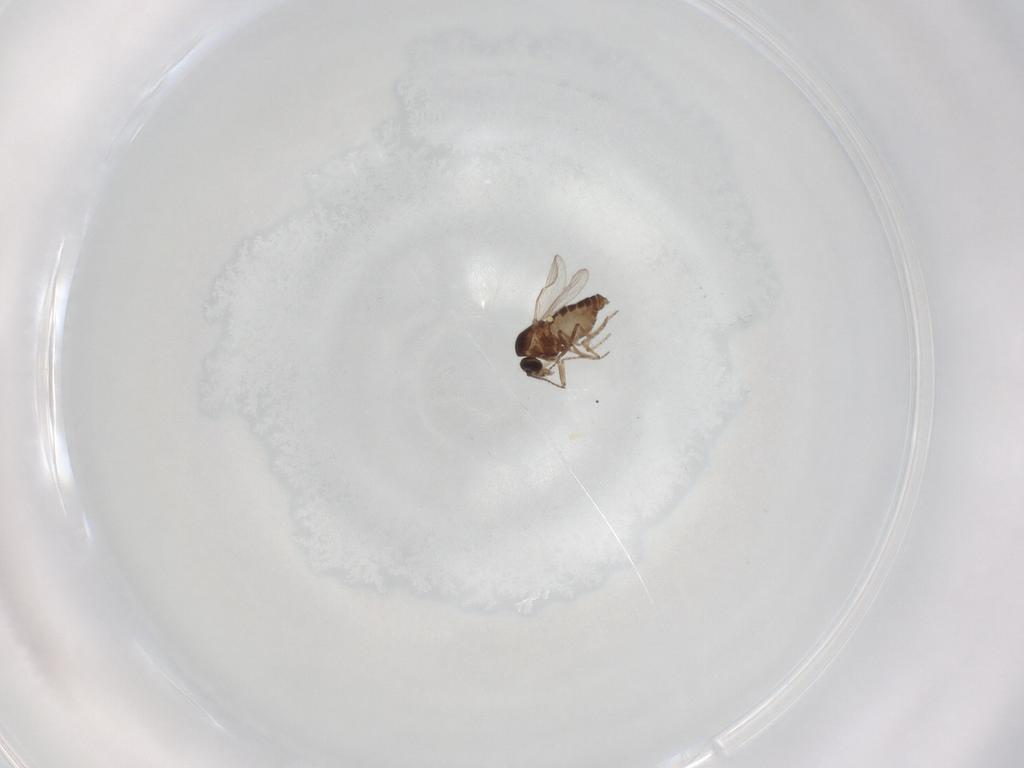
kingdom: Animalia
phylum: Arthropoda
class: Insecta
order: Diptera
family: Ceratopogonidae
